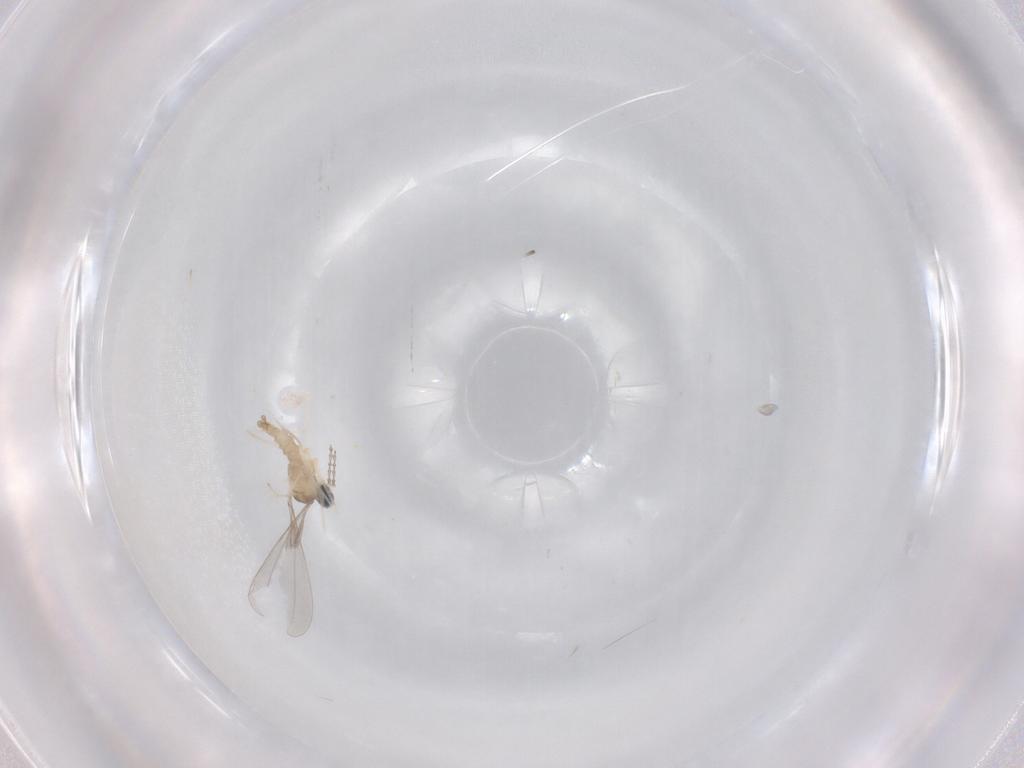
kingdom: Animalia
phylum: Arthropoda
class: Insecta
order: Diptera
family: Cecidomyiidae
